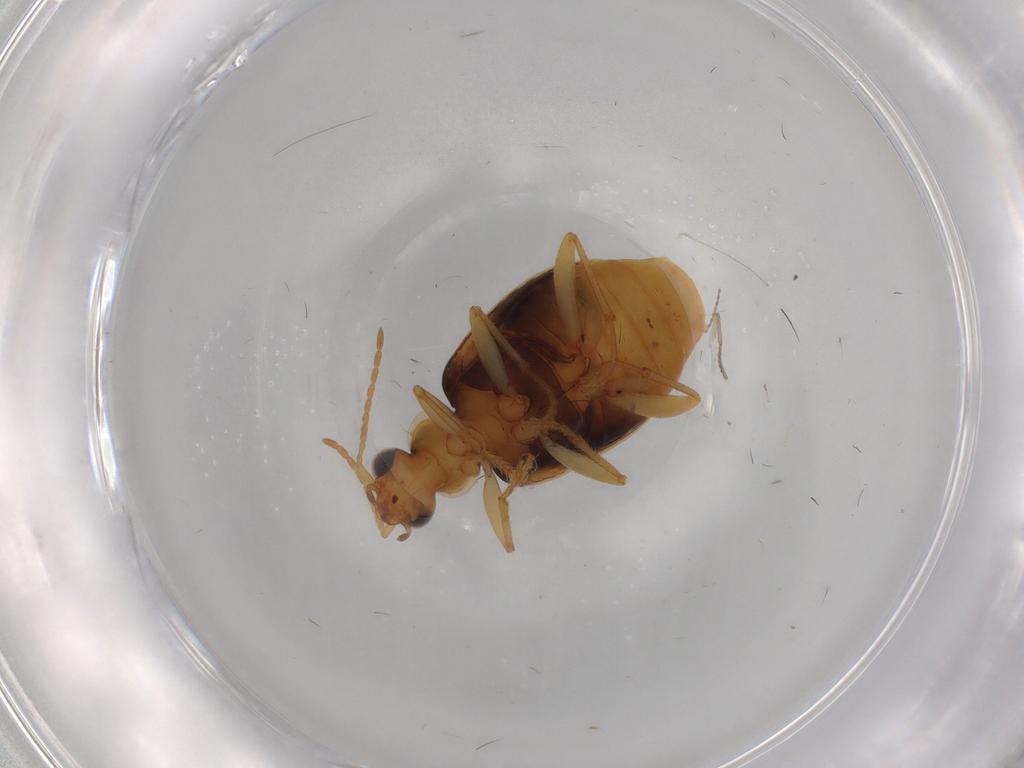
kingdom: Animalia
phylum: Arthropoda
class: Insecta
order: Coleoptera
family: Carabidae
